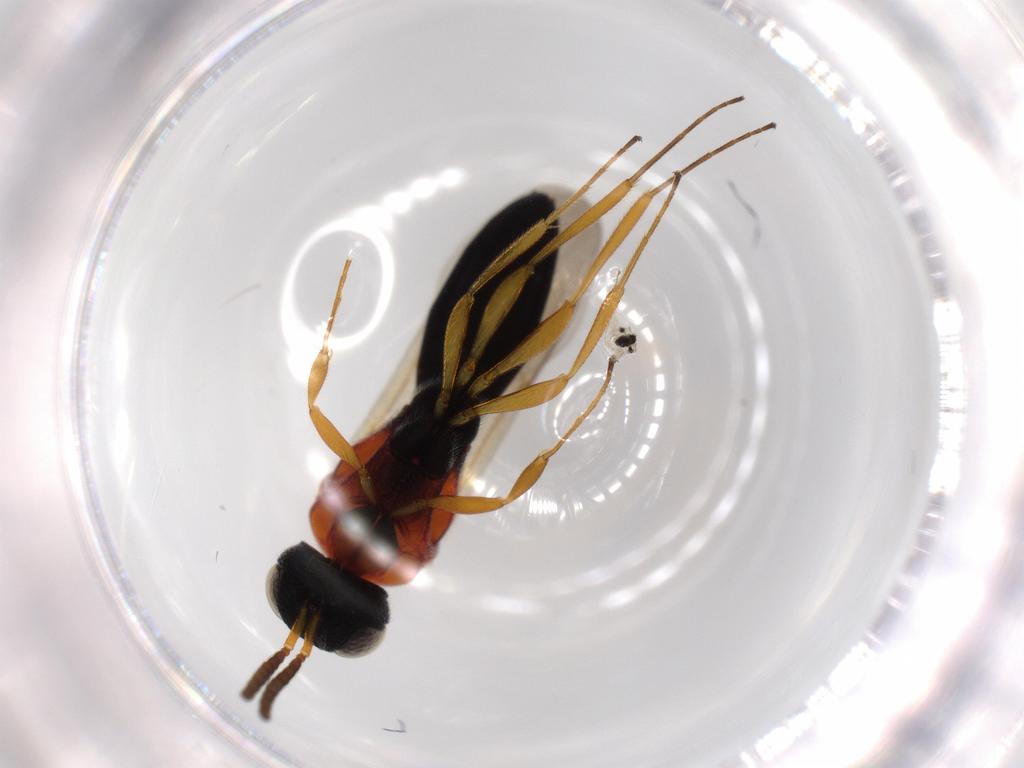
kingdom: Animalia
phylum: Arthropoda
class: Insecta
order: Hymenoptera
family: Scelionidae
